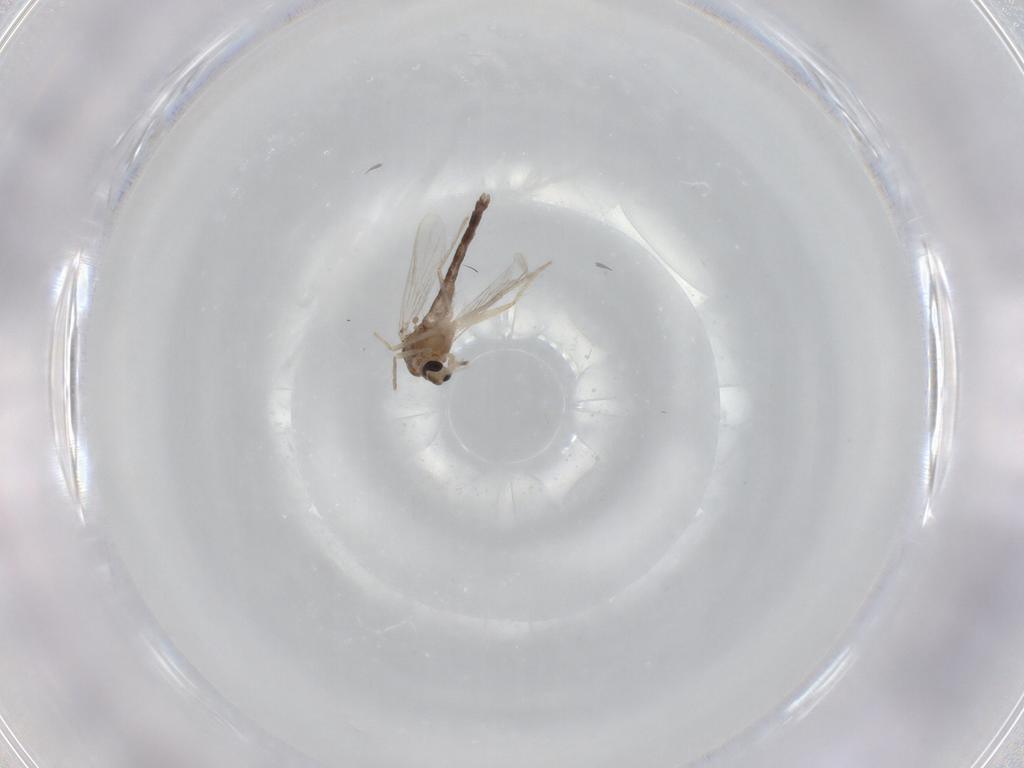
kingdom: Animalia
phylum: Arthropoda
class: Insecta
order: Diptera
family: Chironomidae
